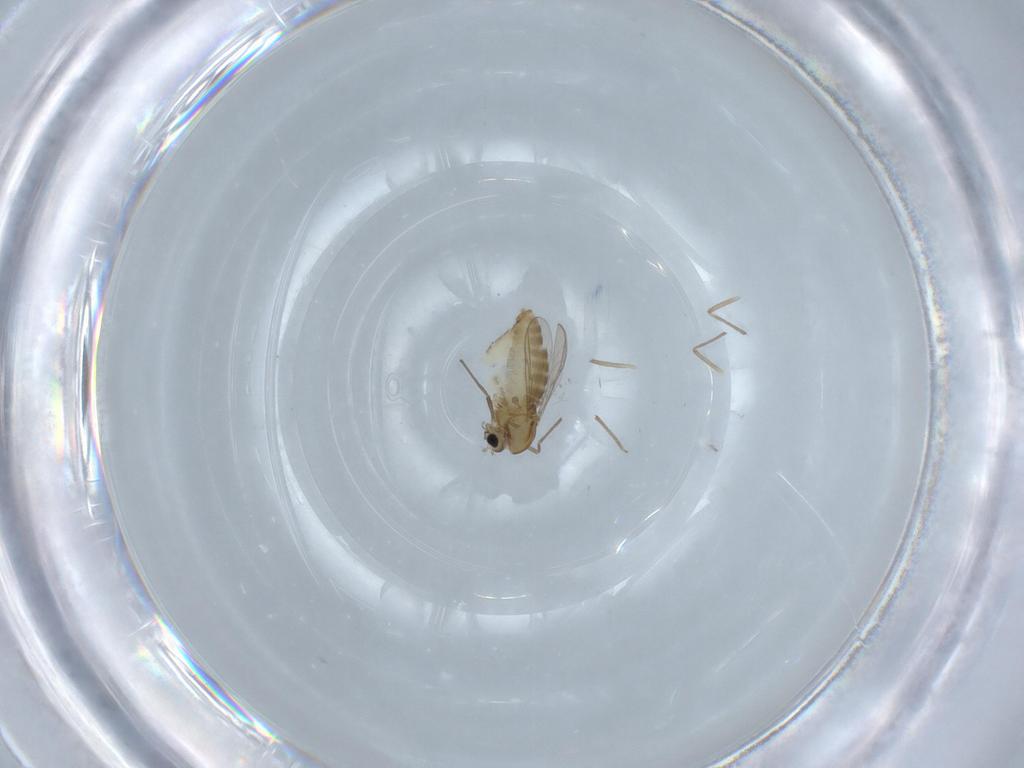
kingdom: Animalia
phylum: Arthropoda
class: Insecta
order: Diptera
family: Chironomidae
